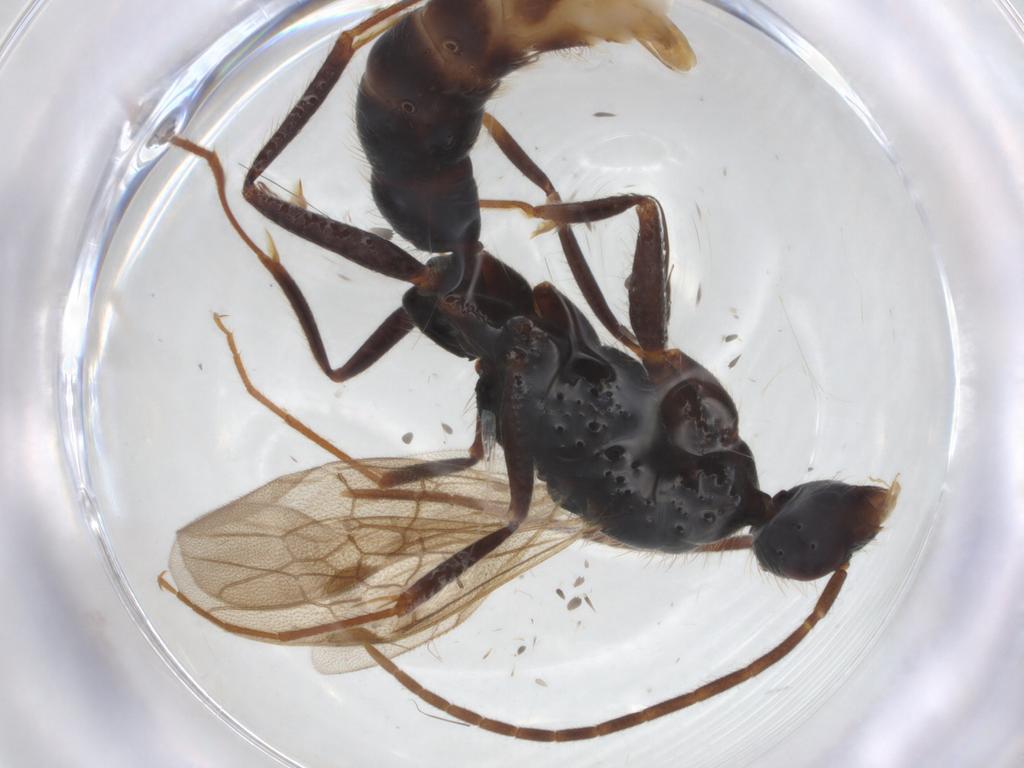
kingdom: Animalia
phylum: Arthropoda
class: Insecta
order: Hymenoptera
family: Formicidae
